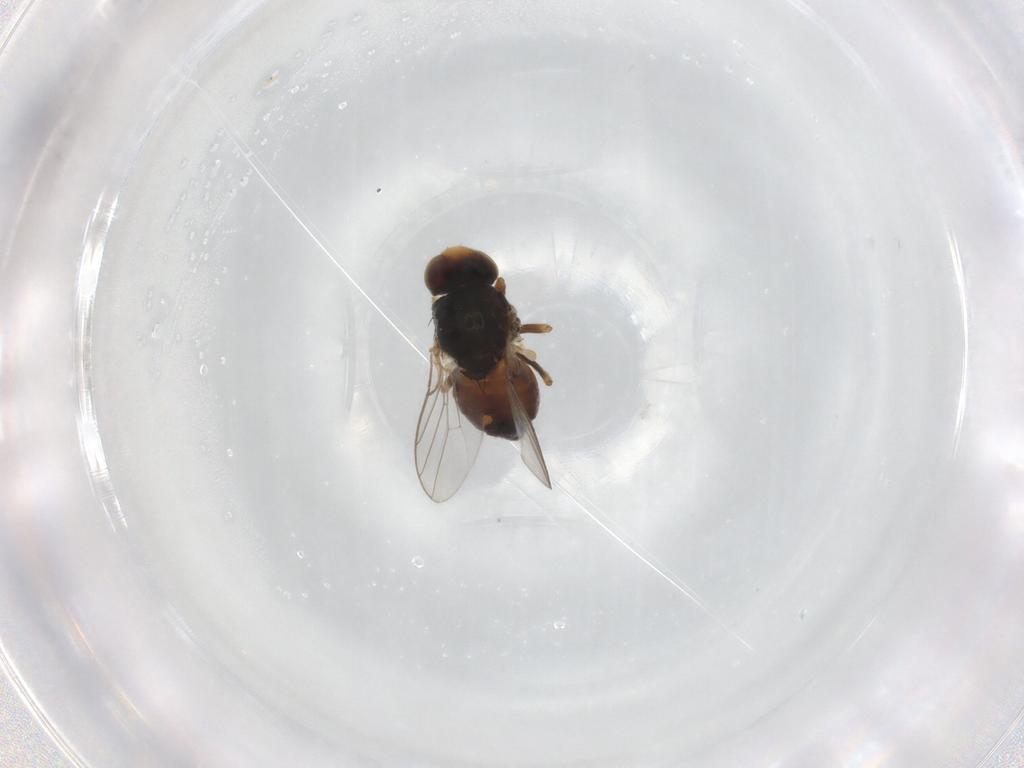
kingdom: Animalia
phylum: Arthropoda
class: Insecta
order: Diptera
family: Chloropidae
